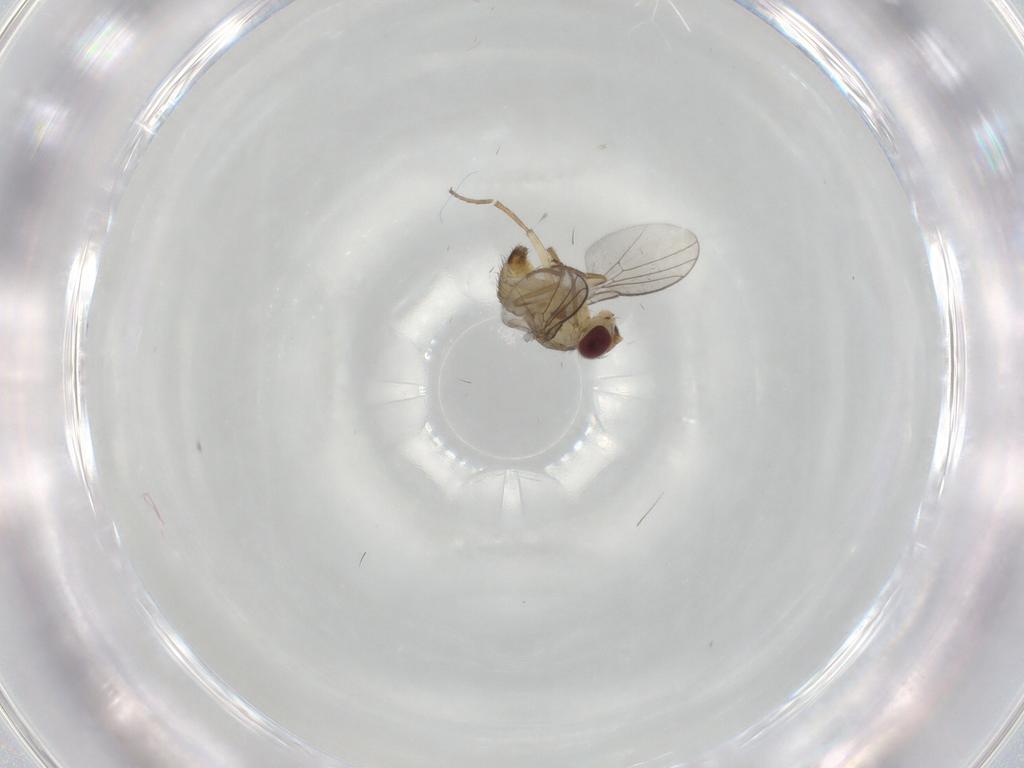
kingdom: Animalia
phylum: Arthropoda
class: Insecta
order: Diptera
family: Agromyzidae
